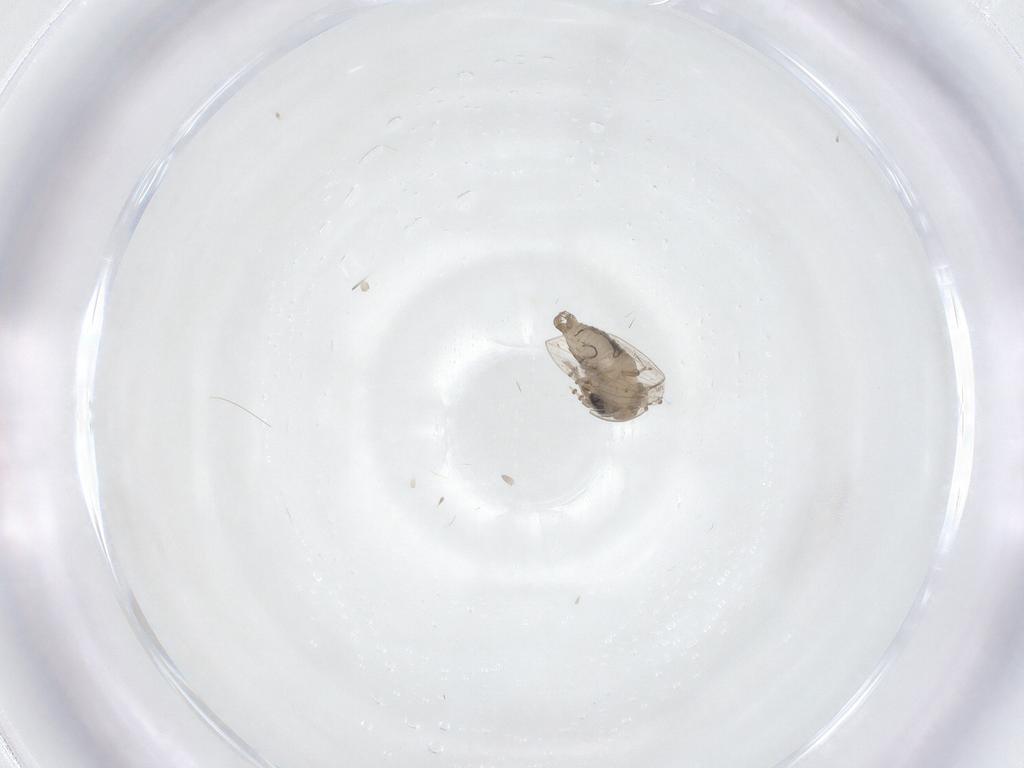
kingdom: Animalia
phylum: Arthropoda
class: Insecta
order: Diptera
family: Psychodidae
